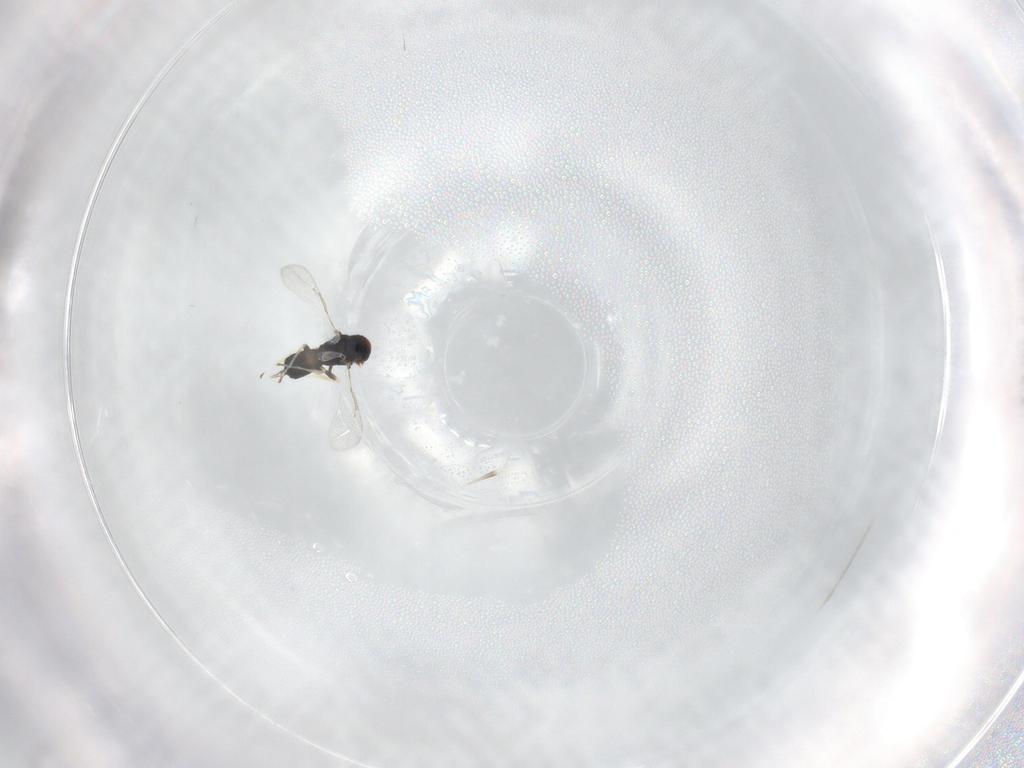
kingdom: Animalia
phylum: Arthropoda
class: Insecta
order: Hymenoptera
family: Eulophidae
